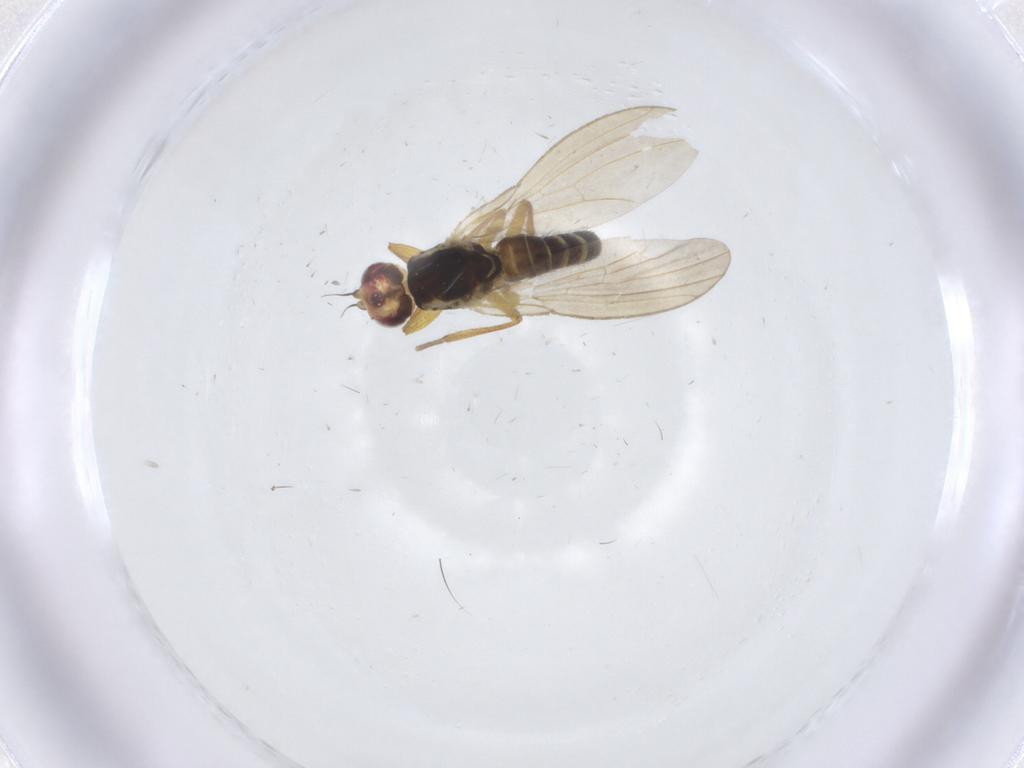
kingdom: Animalia
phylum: Arthropoda
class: Insecta
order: Diptera
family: Agromyzidae
